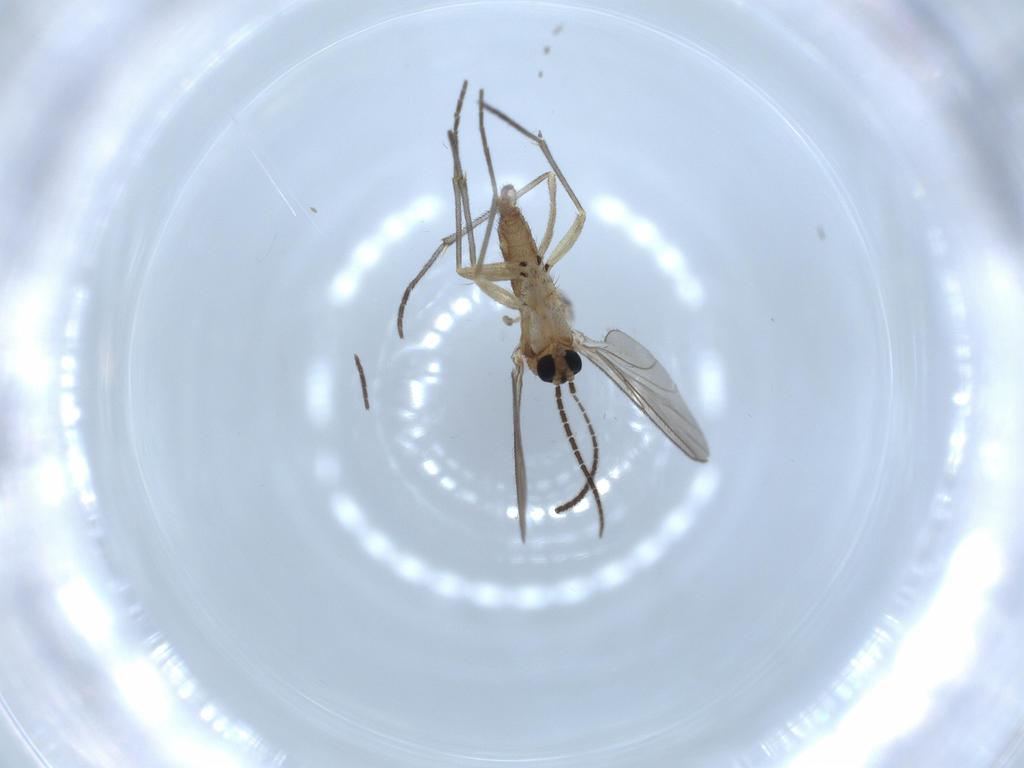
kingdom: Animalia
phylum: Arthropoda
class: Insecta
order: Diptera
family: Sciaridae
